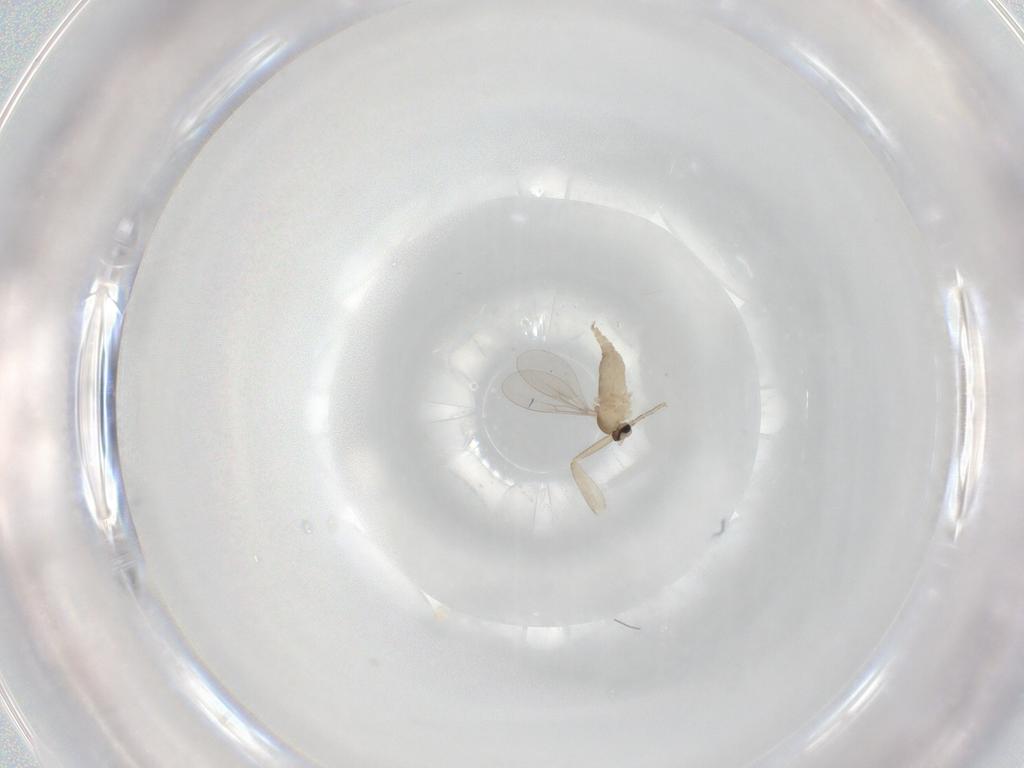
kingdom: Animalia
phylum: Arthropoda
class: Insecta
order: Diptera
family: Phoridae
